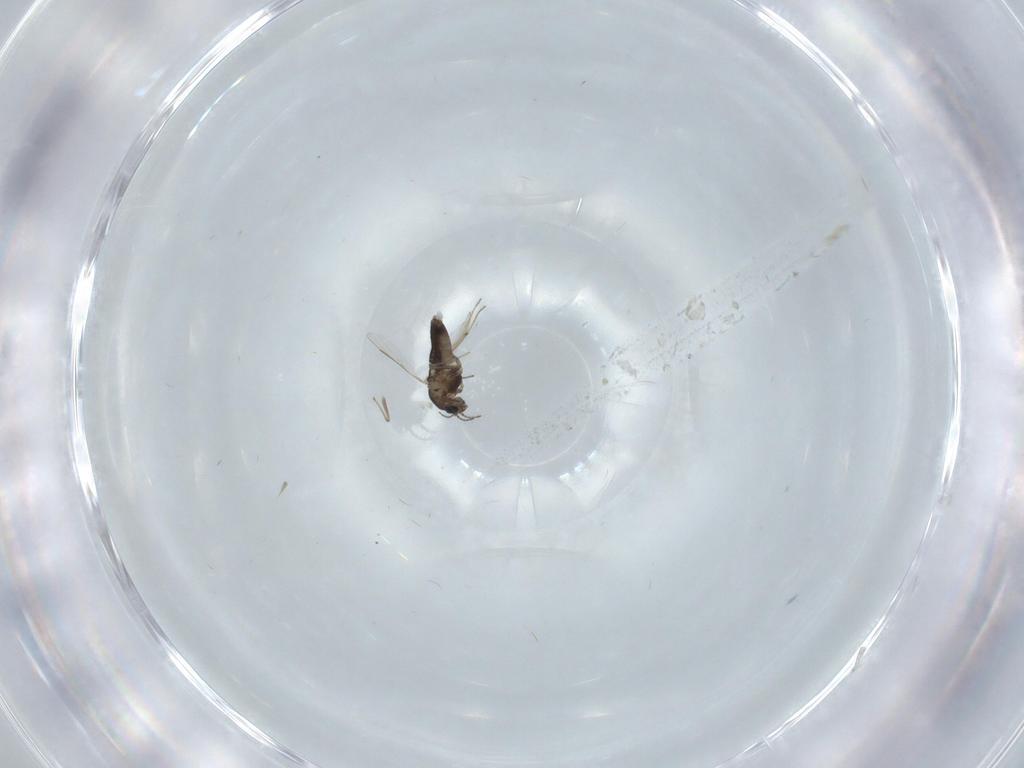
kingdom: Animalia
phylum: Arthropoda
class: Insecta
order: Diptera
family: Chironomidae
